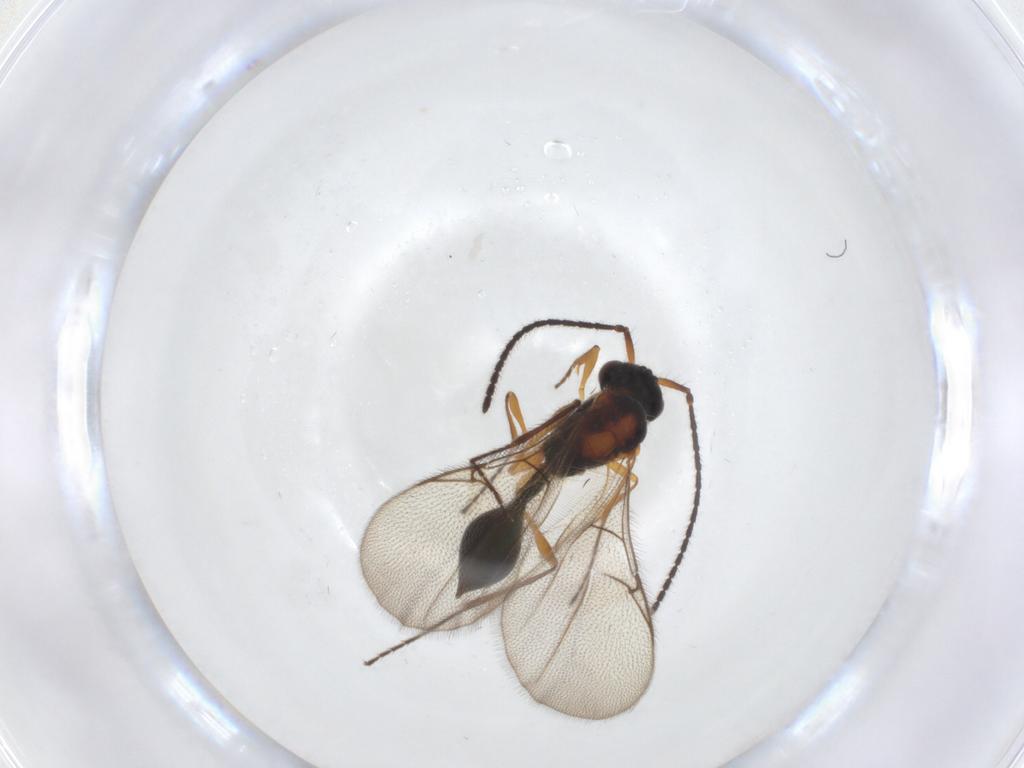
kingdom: Animalia
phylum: Arthropoda
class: Insecta
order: Hymenoptera
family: Diapriidae
